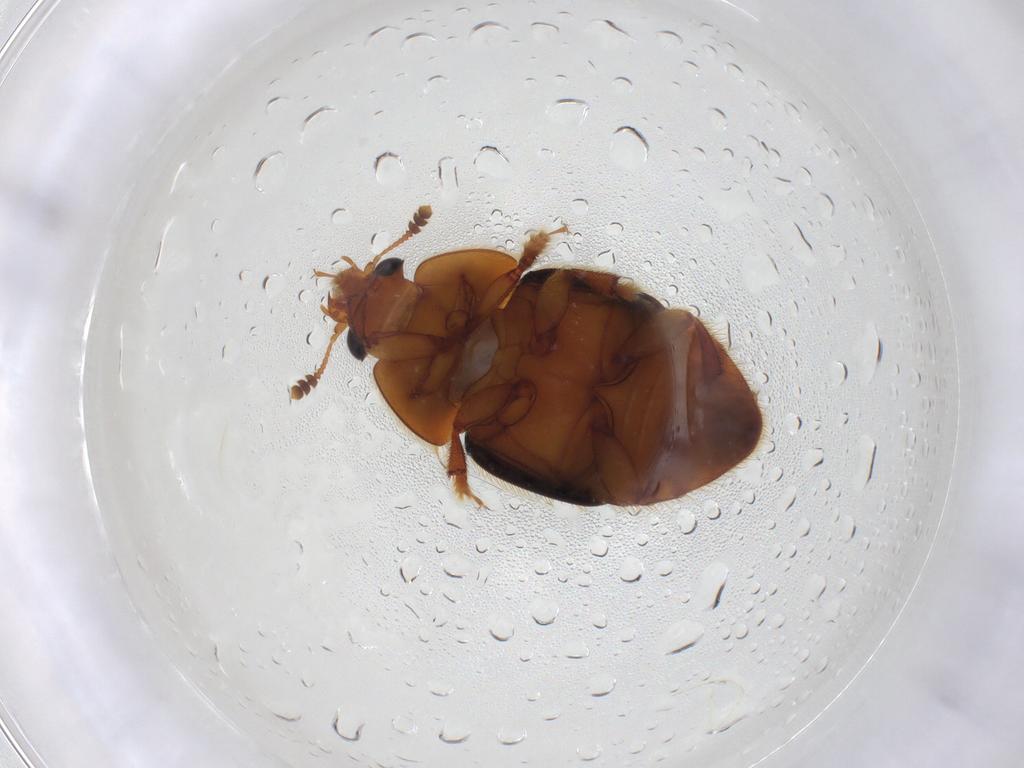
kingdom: Animalia
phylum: Arthropoda
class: Insecta
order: Coleoptera
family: Nitidulidae
